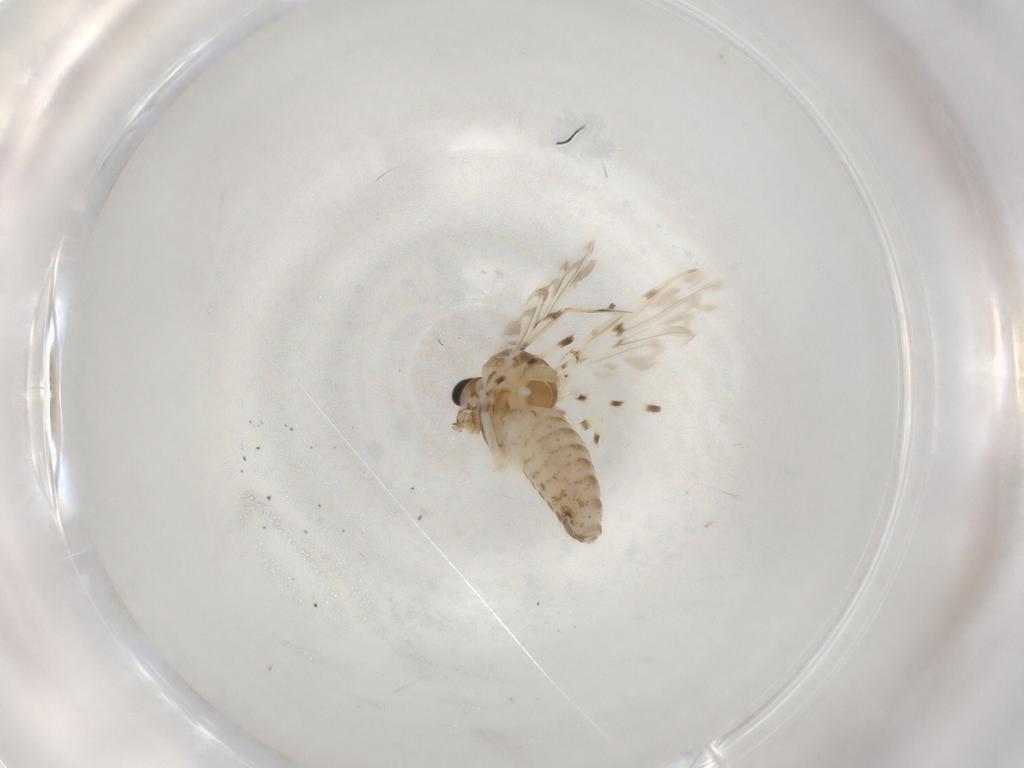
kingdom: Animalia
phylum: Arthropoda
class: Insecta
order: Diptera
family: Chironomidae
